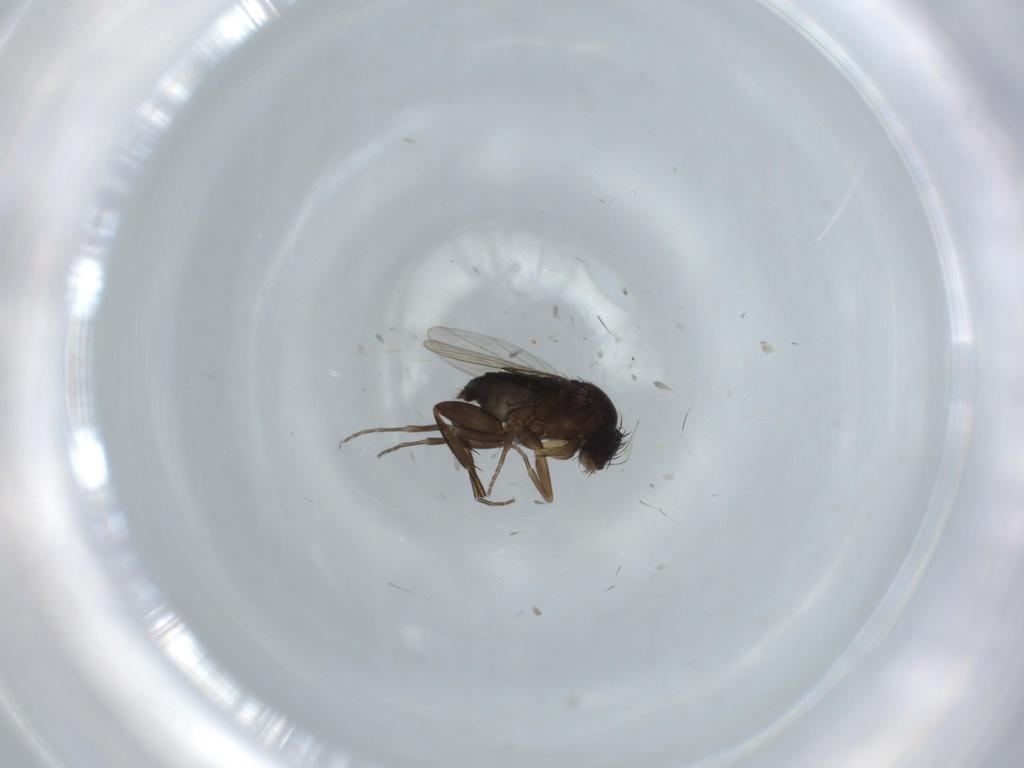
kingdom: Animalia
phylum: Arthropoda
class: Insecta
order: Diptera
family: Phoridae
